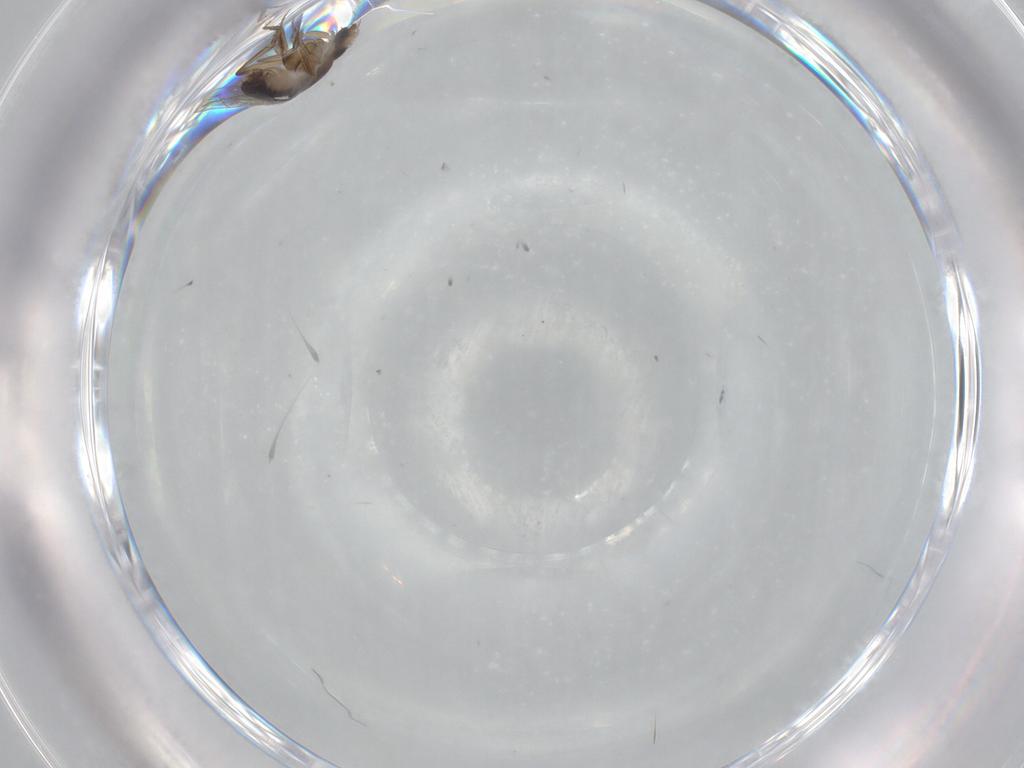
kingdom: Animalia
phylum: Arthropoda
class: Insecta
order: Diptera
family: Phoridae
